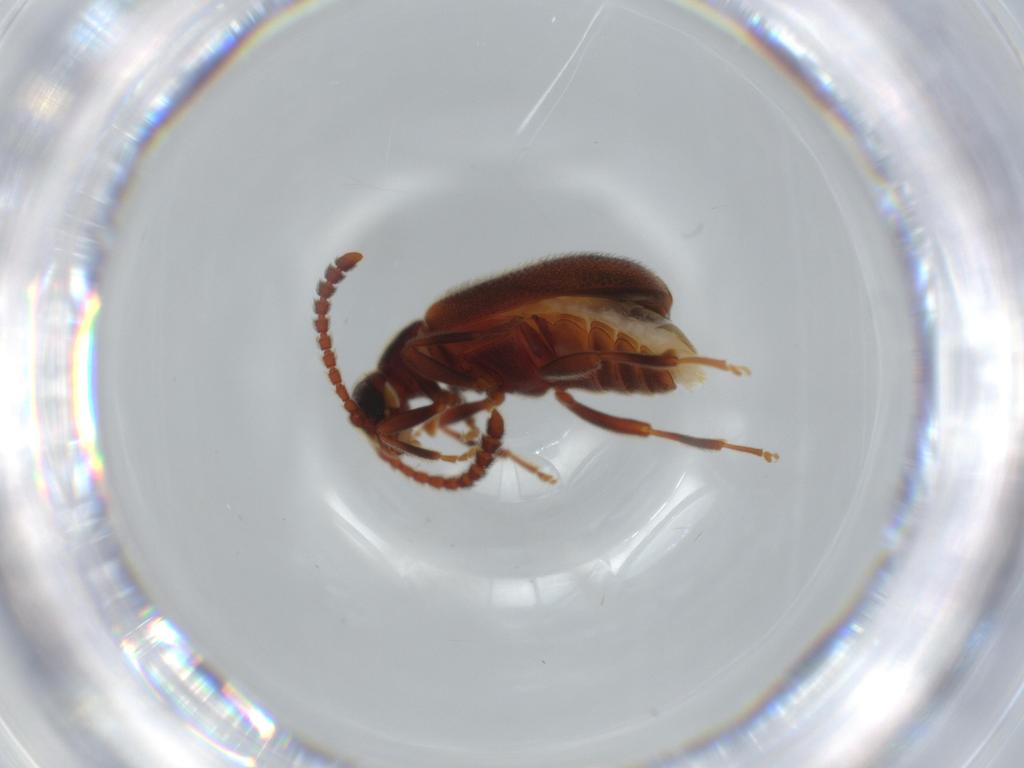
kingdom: Animalia
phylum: Arthropoda
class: Insecta
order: Coleoptera
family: Aderidae
